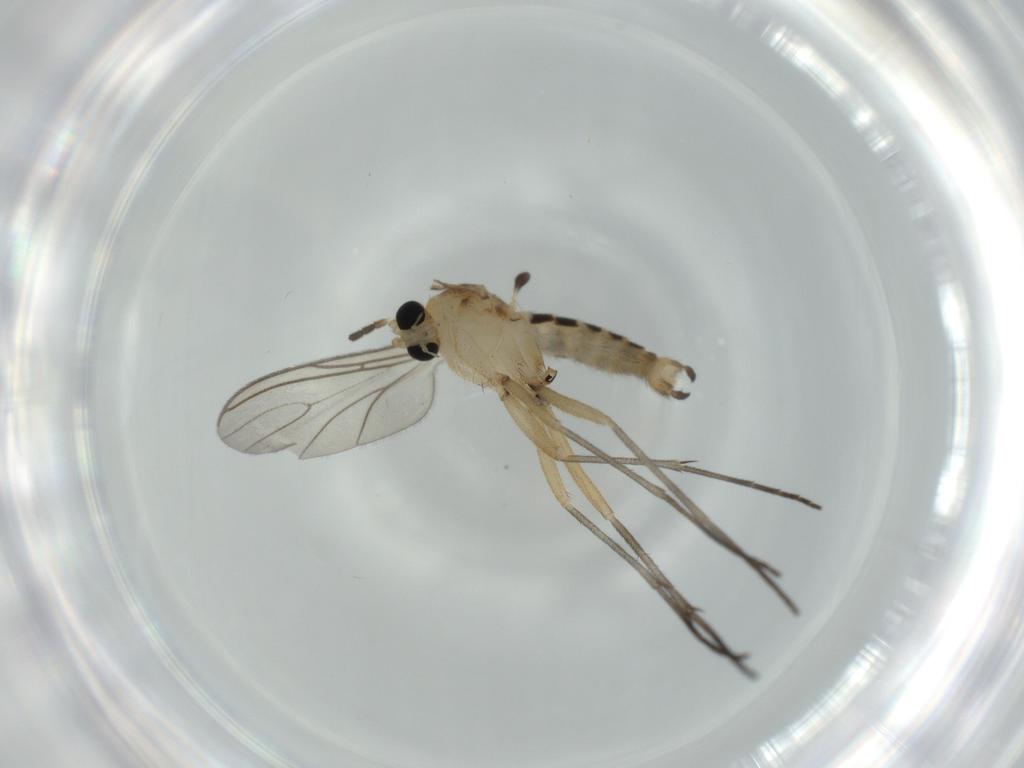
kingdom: Animalia
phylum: Arthropoda
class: Insecta
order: Diptera
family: Sciaridae
